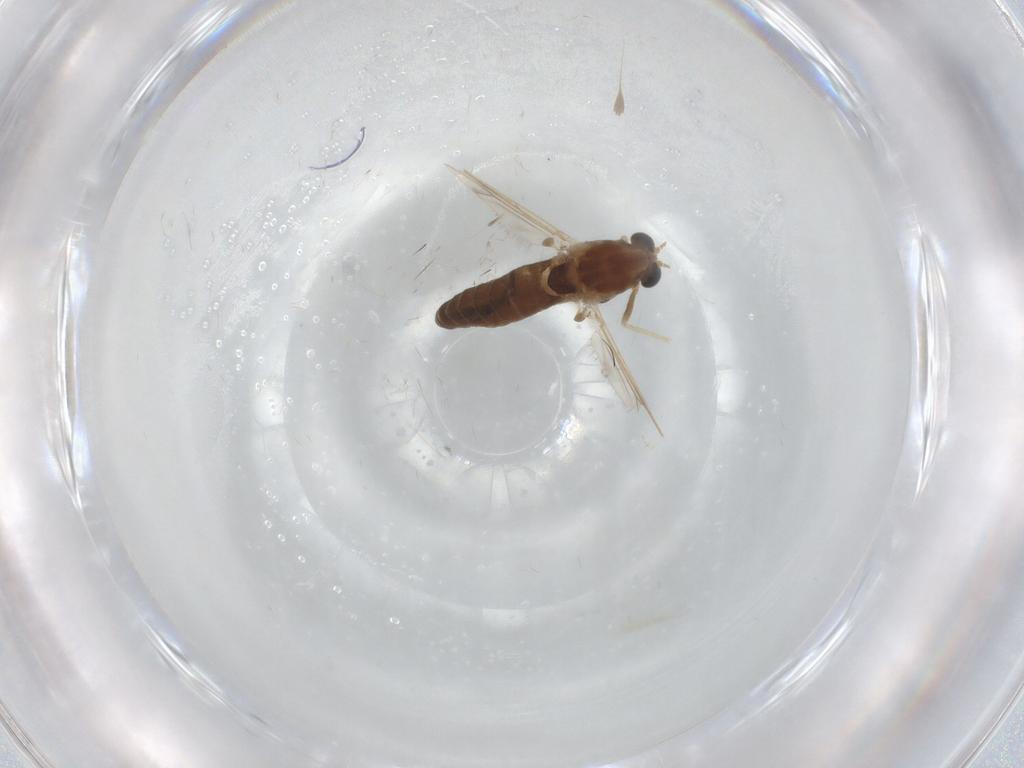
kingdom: Animalia
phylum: Arthropoda
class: Insecta
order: Diptera
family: Chironomidae
